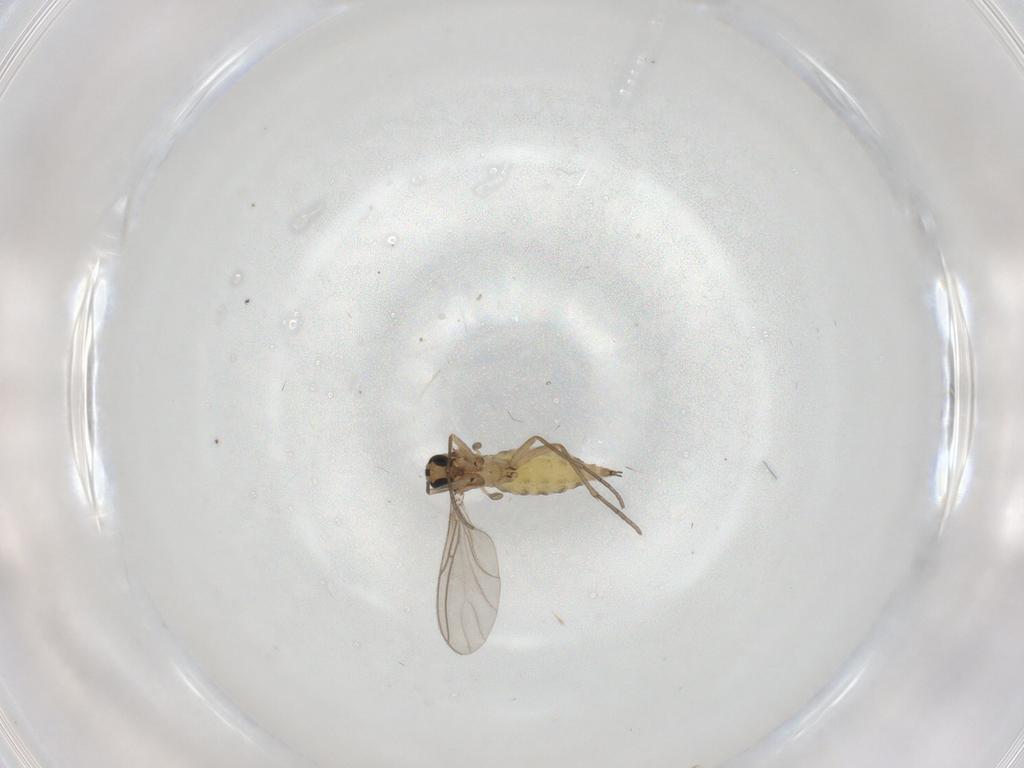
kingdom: Animalia
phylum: Arthropoda
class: Insecta
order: Diptera
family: Sciaridae
